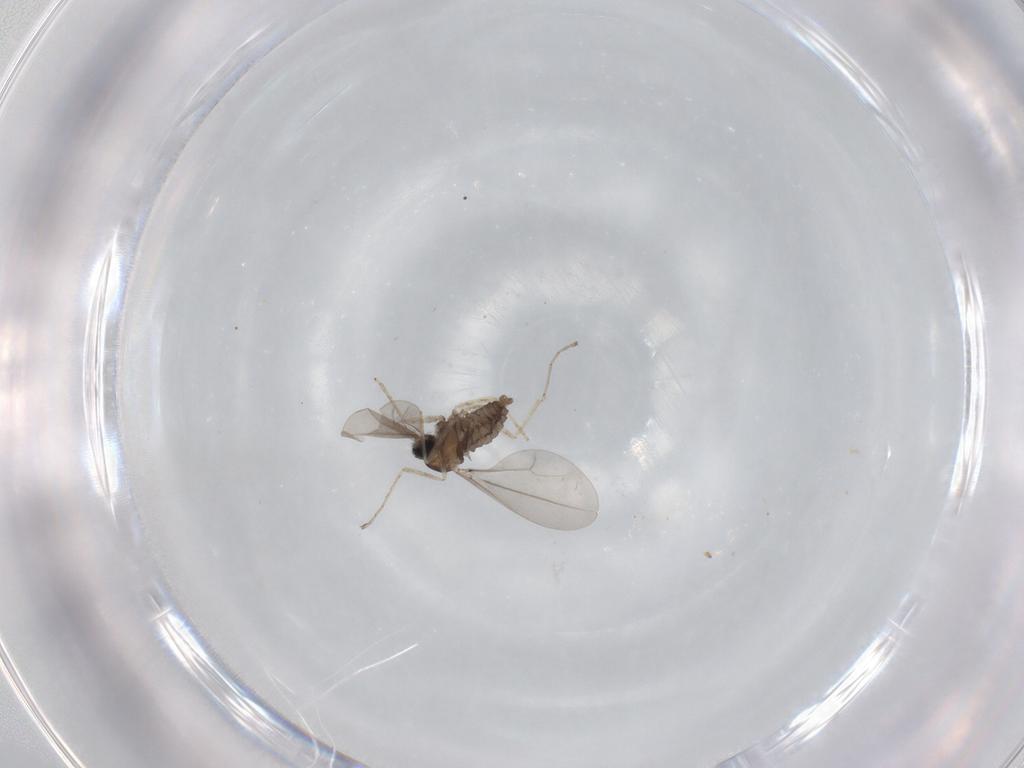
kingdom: Animalia
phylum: Arthropoda
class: Insecta
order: Diptera
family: Cecidomyiidae
